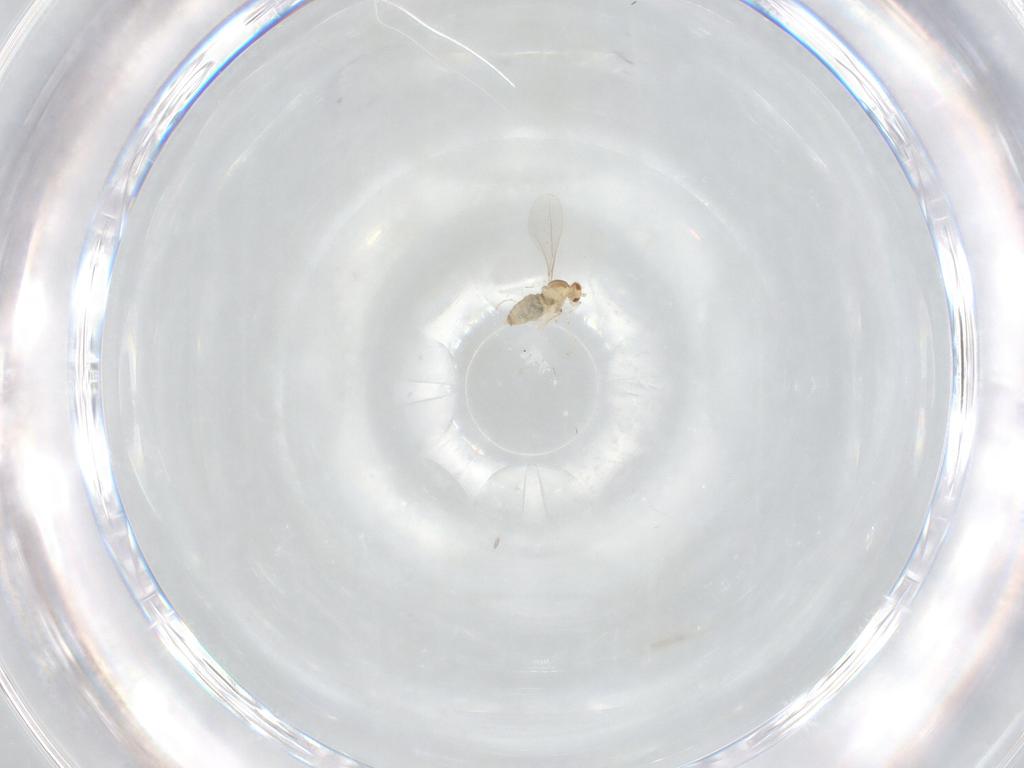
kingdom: Animalia
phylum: Arthropoda
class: Insecta
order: Diptera
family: Cecidomyiidae
